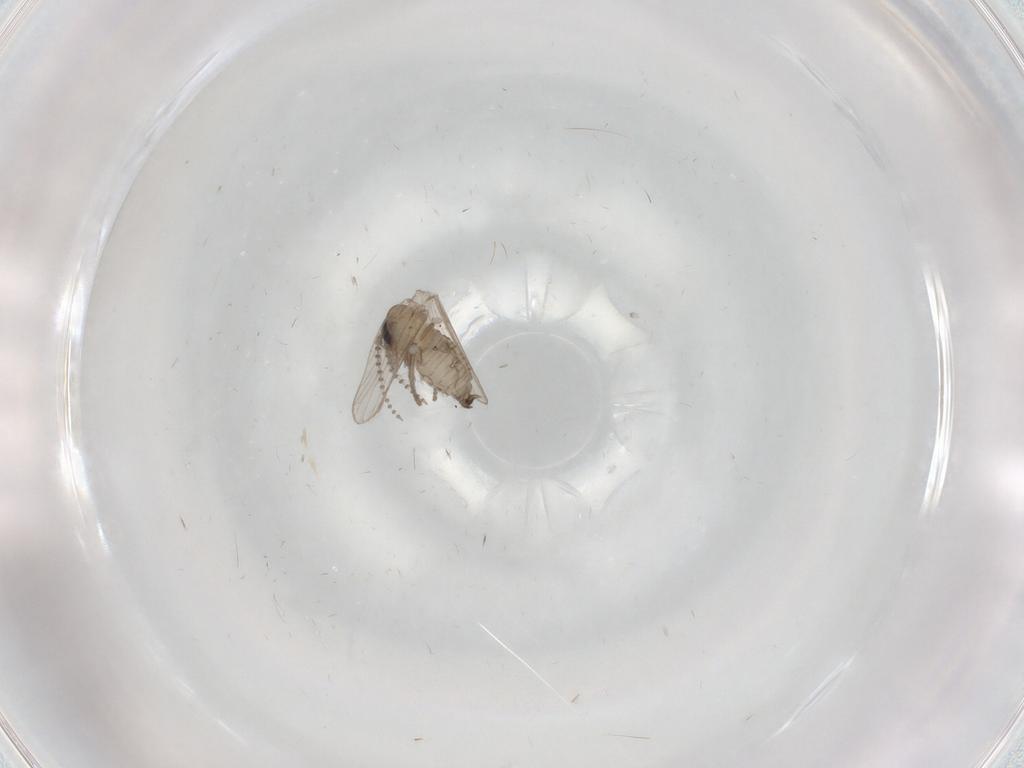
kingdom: Animalia
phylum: Arthropoda
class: Insecta
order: Diptera
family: Psychodidae
